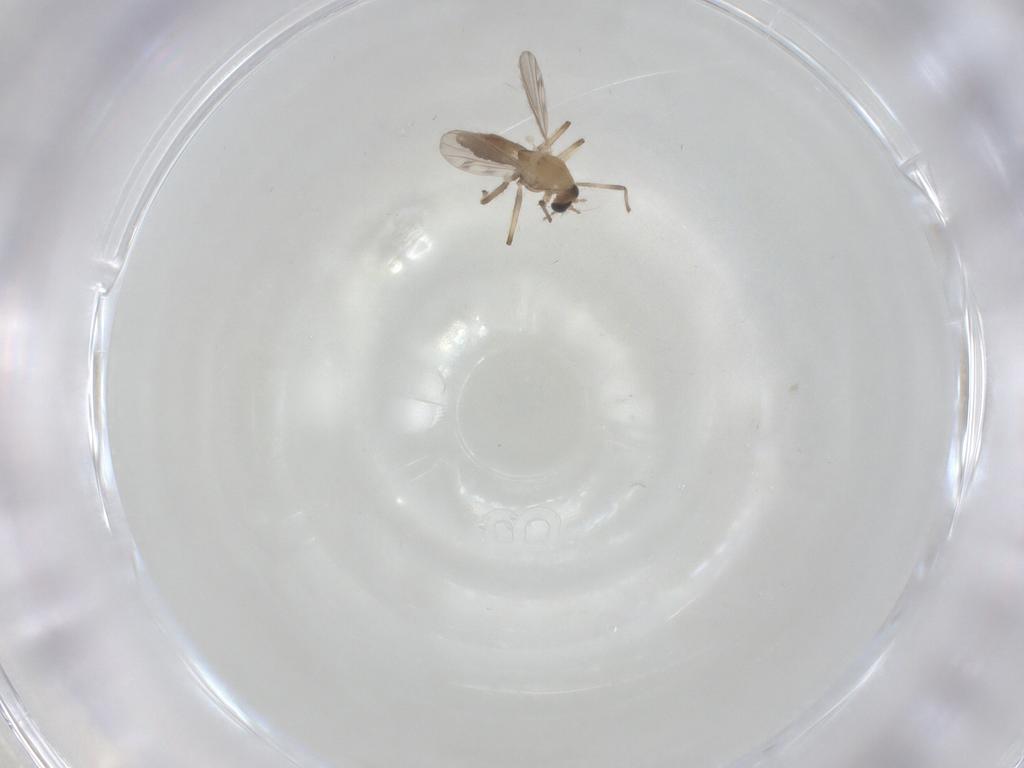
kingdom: Animalia
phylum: Arthropoda
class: Insecta
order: Diptera
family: Chironomidae
